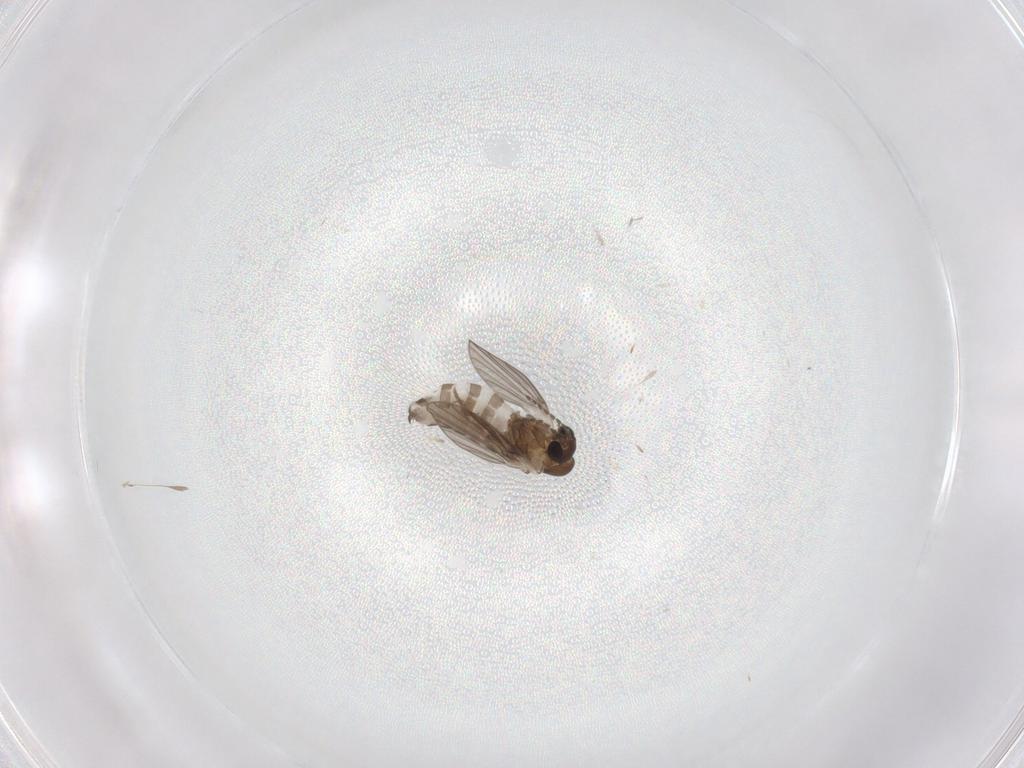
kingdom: Animalia
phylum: Arthropoda
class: Insecta
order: Diptera
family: Cecidomyiidae
